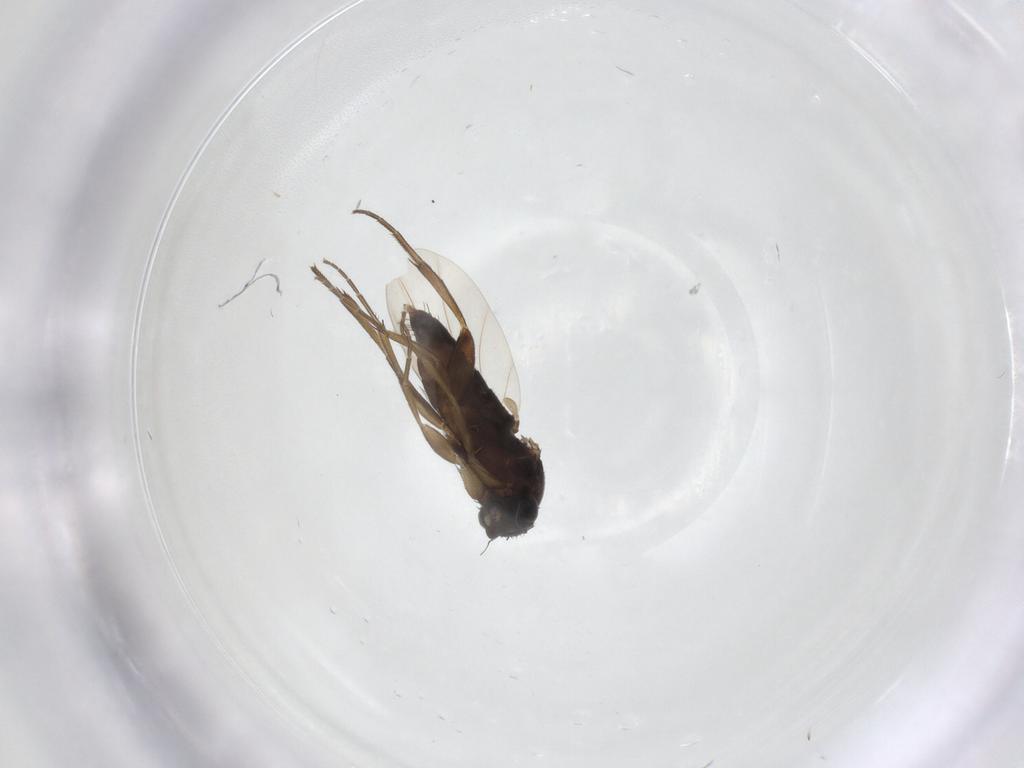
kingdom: Animalia
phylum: Arthropoda
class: Insecta
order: Diptera
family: Phoridae
